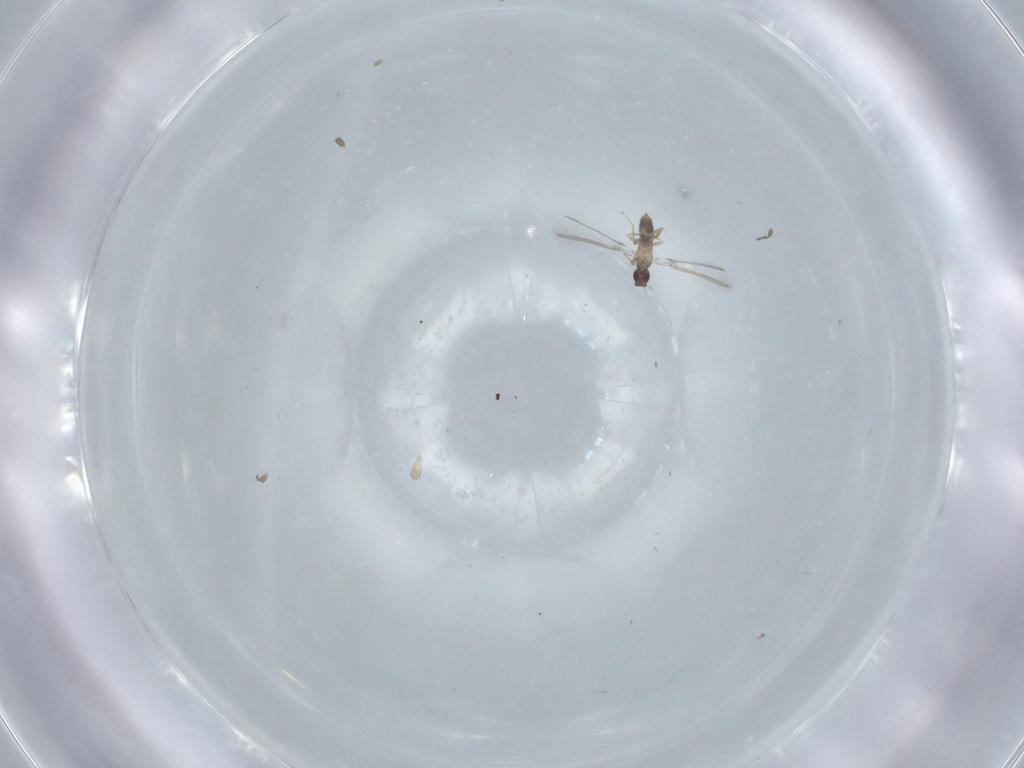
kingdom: Animalia
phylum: Arthropoda
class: Insecta
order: Hymenoptera
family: Mymaridae
